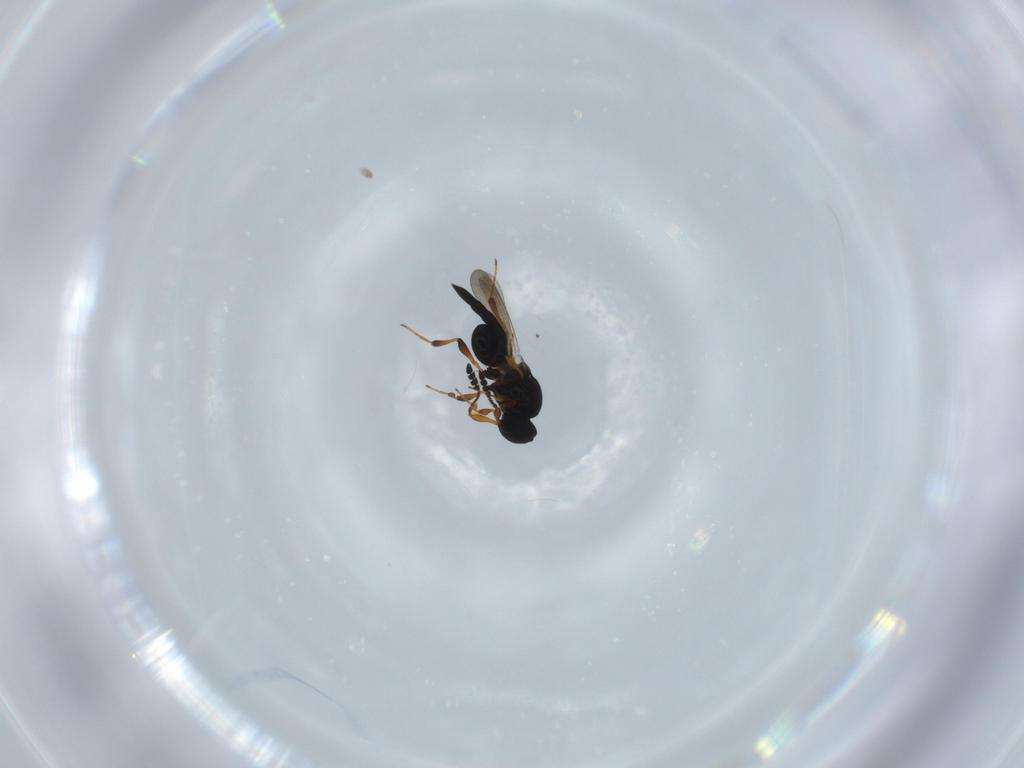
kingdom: Animalia
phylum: Arthropoda
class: Insecta
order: Hymenoptera
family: Platygastridae
